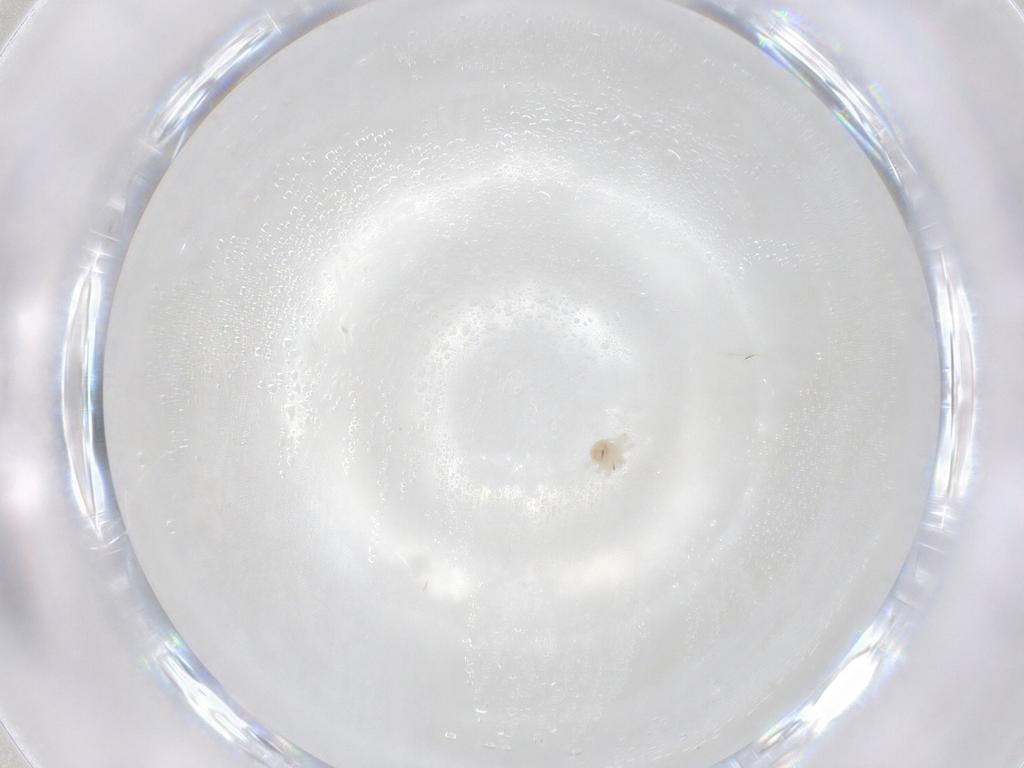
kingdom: Animalia
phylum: Arthropoda
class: Arachnida
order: Trombidiformes
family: Anystidae
